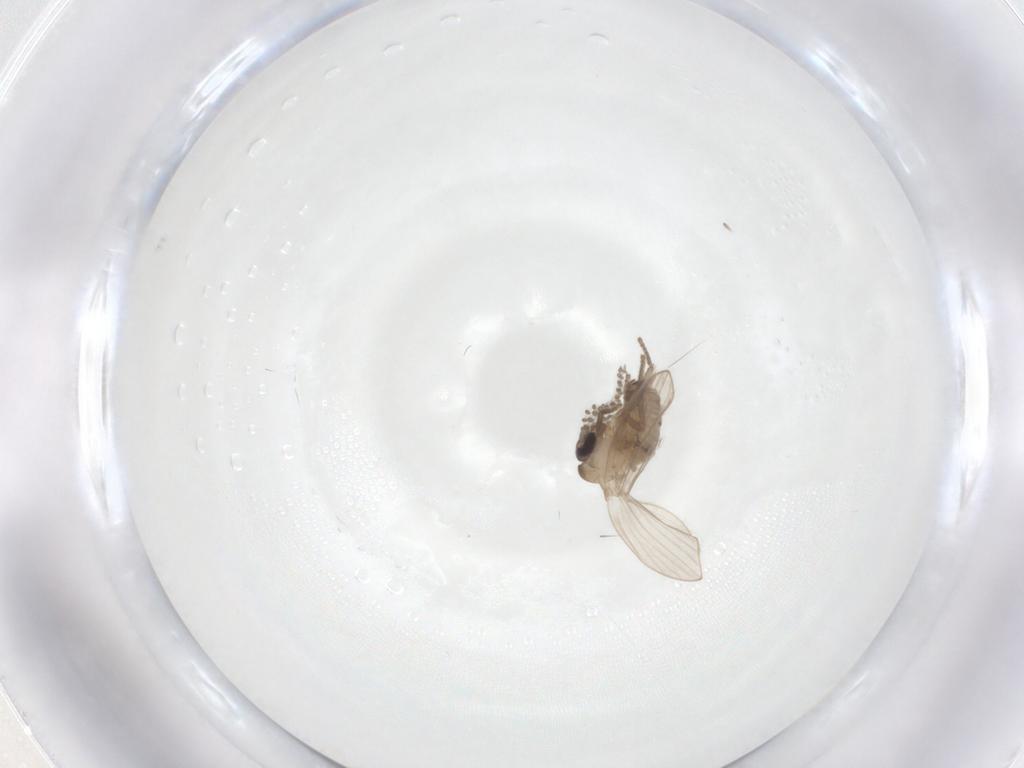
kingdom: Animalia
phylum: Arthropoda
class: Insecta
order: Diptera
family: Psychodidae
